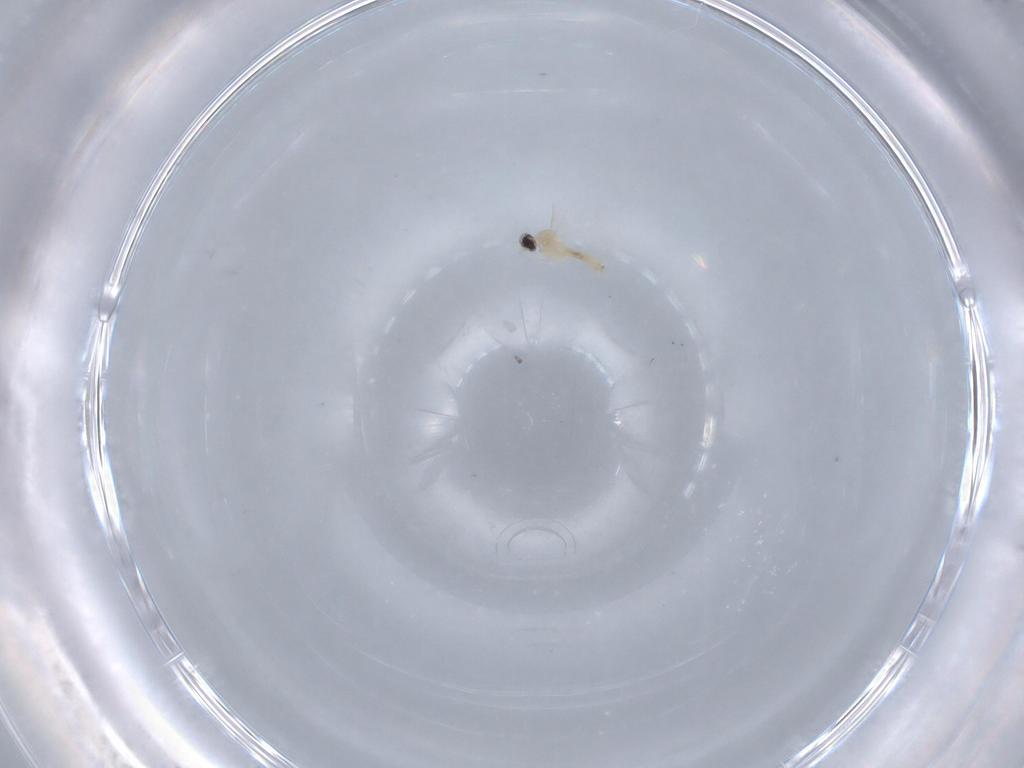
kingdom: Animalia
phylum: Arthropoda
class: Insecta
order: Diptera
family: Cecidomyiidae
